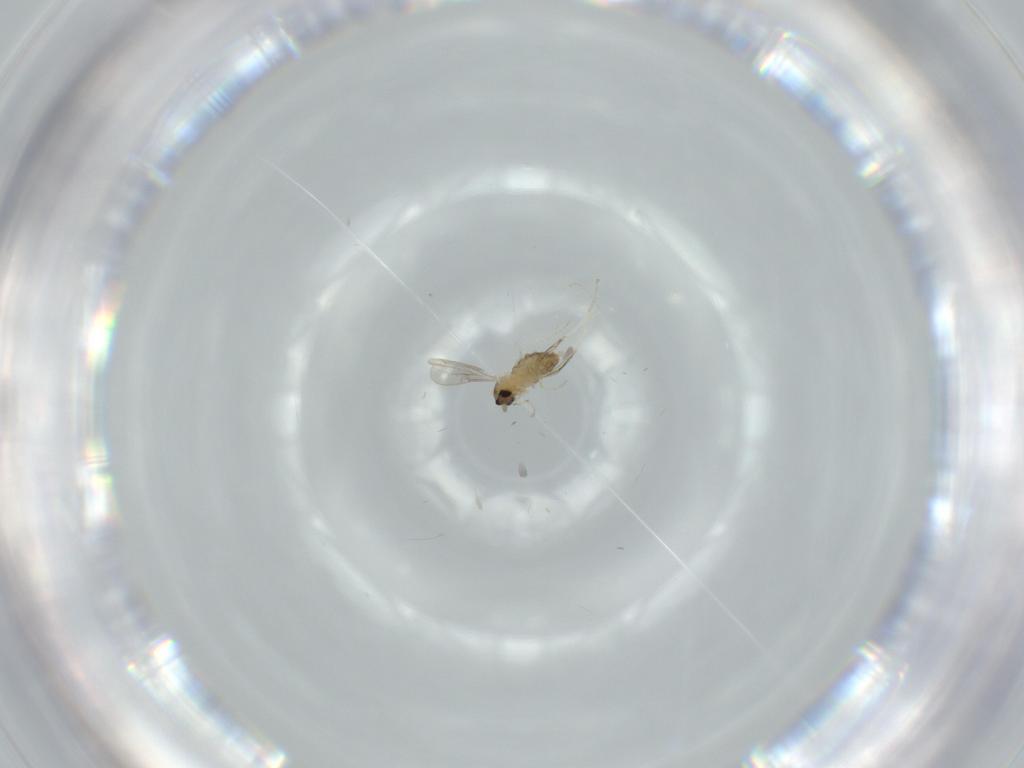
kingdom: Animalia
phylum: Arthropoda
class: Insecta
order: Diptera
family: Cecidomyiidae
